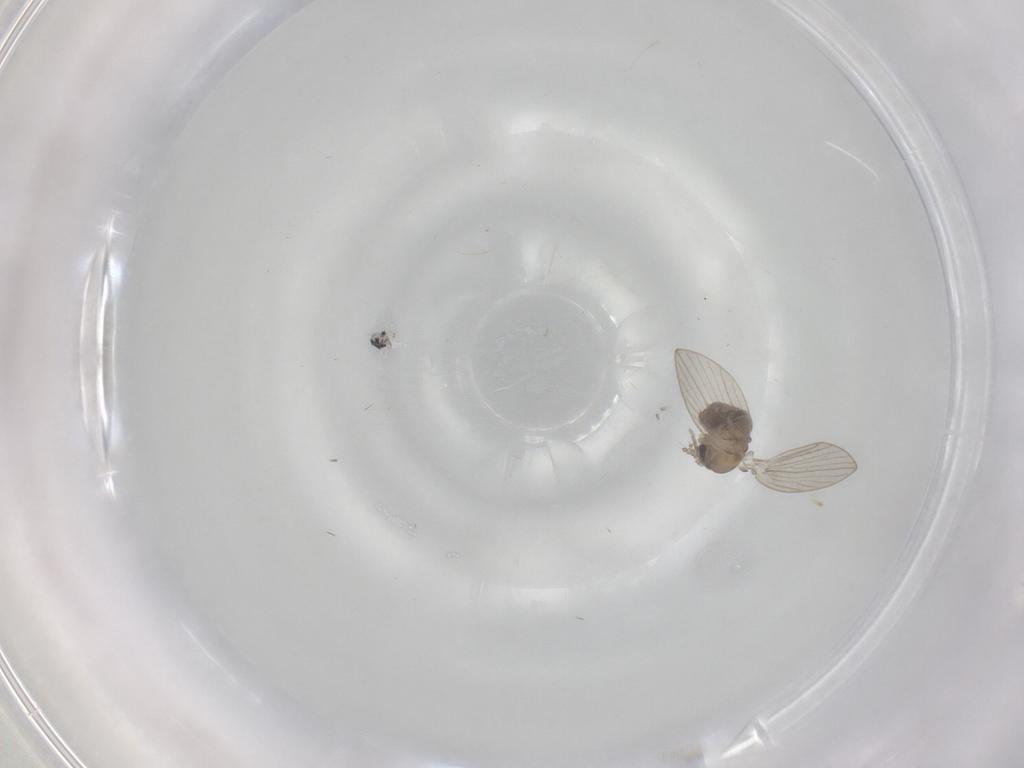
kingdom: Animalia
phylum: Arthropoda
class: Insecta
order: Diptera
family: Psychodidae
